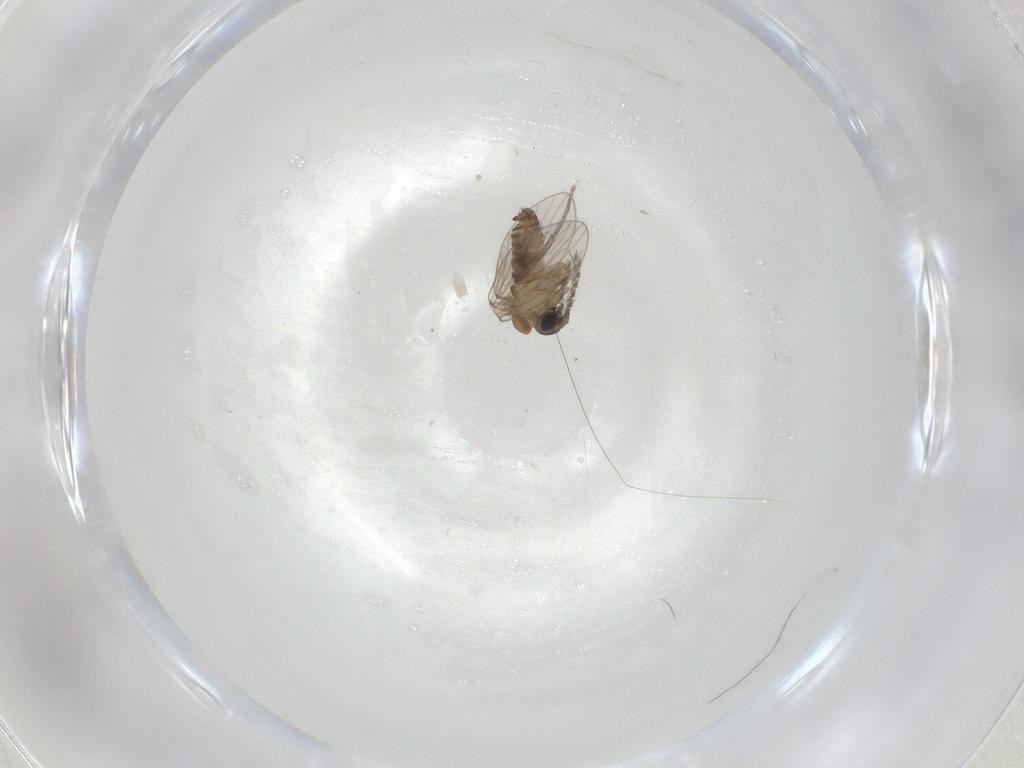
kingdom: Animalia
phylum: Arthropoda
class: Insecta
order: Diptera
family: Psychodidae
